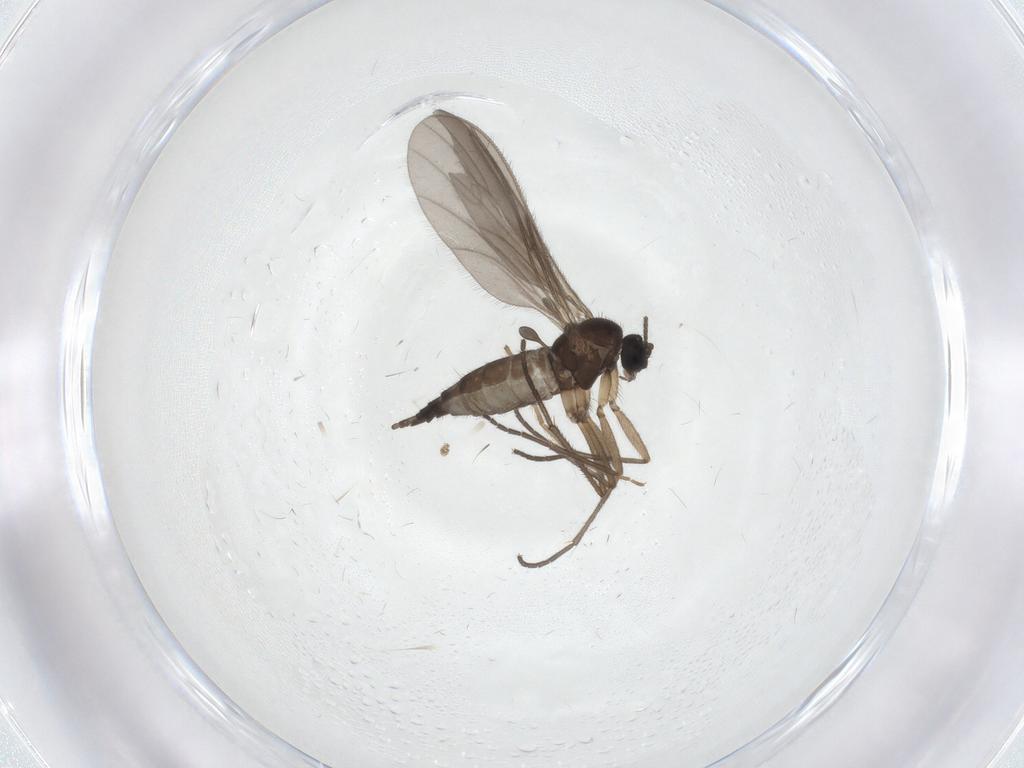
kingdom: Animalia
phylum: Arthropoda
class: Insecta
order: Diptera
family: Sciaridae
